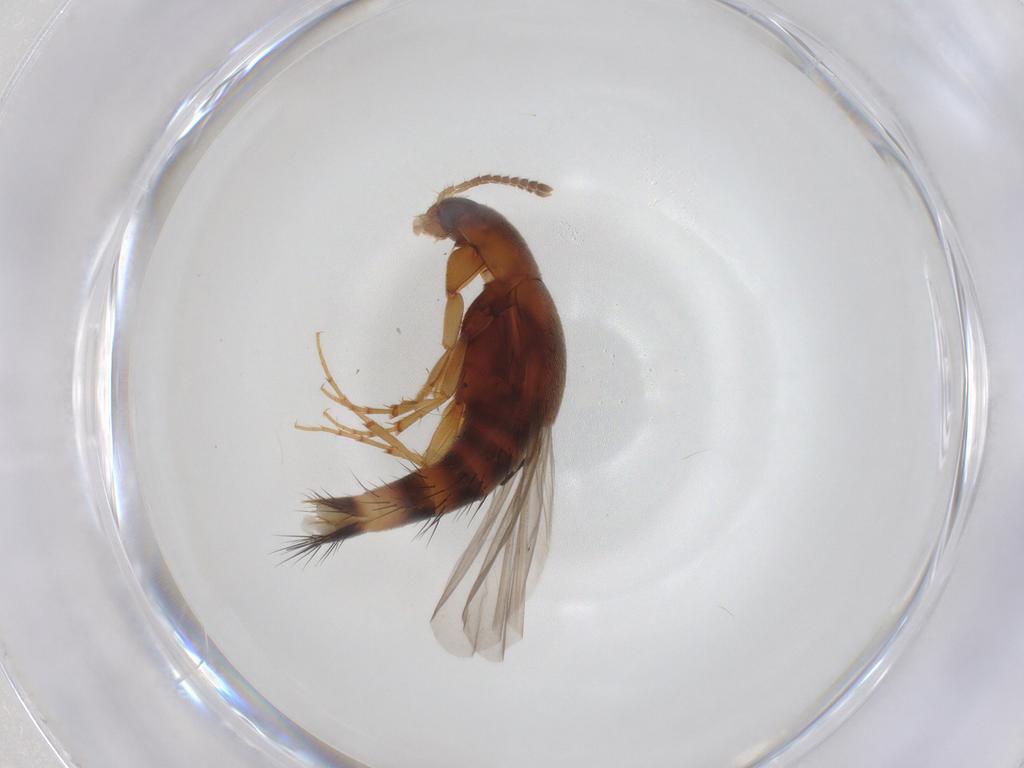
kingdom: Animalia
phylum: Arthropoda
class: Insecta
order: Coleoptera
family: Staphylinidae
